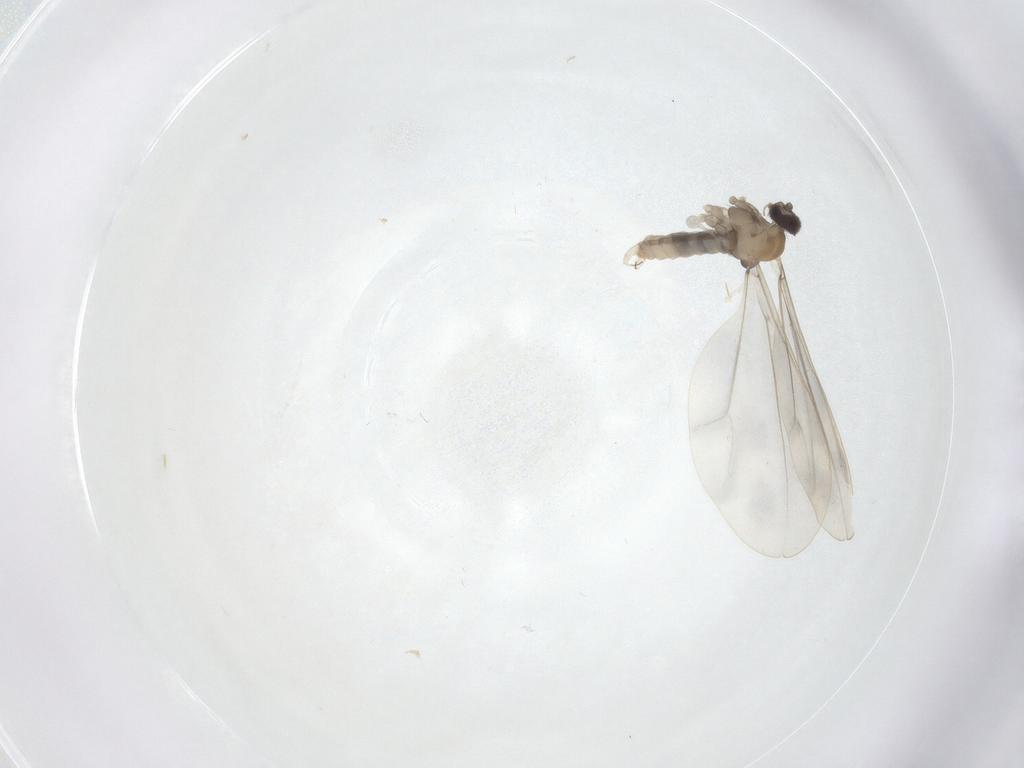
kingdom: Animalia
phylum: Arthropoda
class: Insecta
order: Diptera
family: Cecidomyiidae
